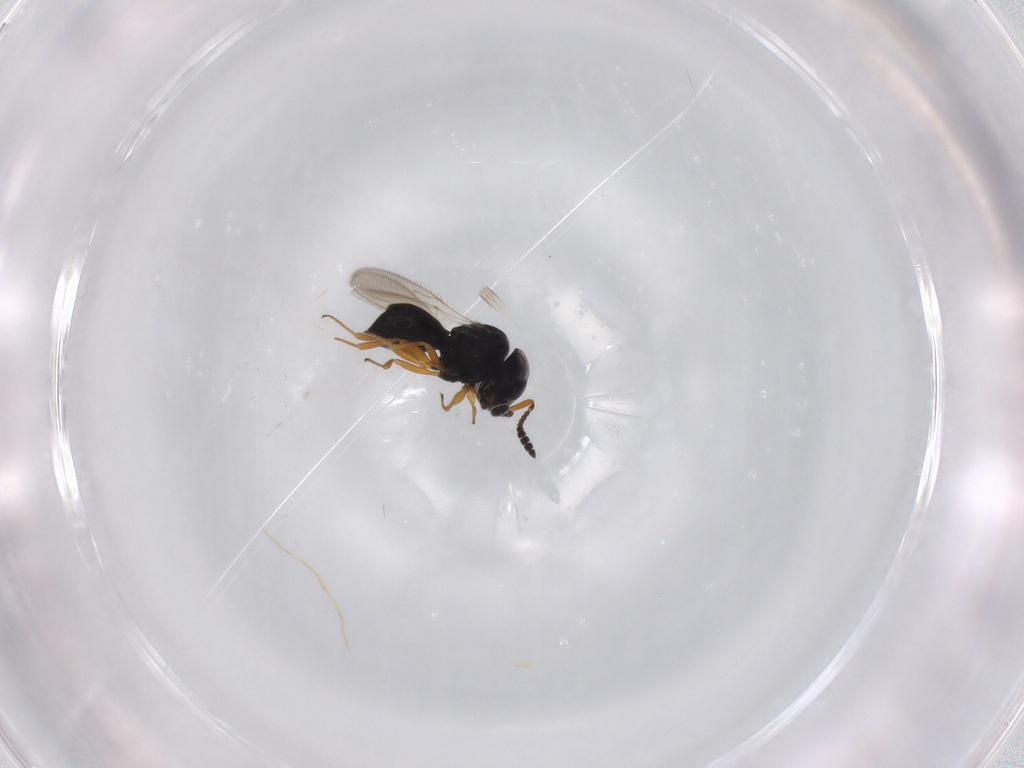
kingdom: Animalia
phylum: Arthropoda
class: Insecta
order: Hymenoptera
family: Scelionidae
